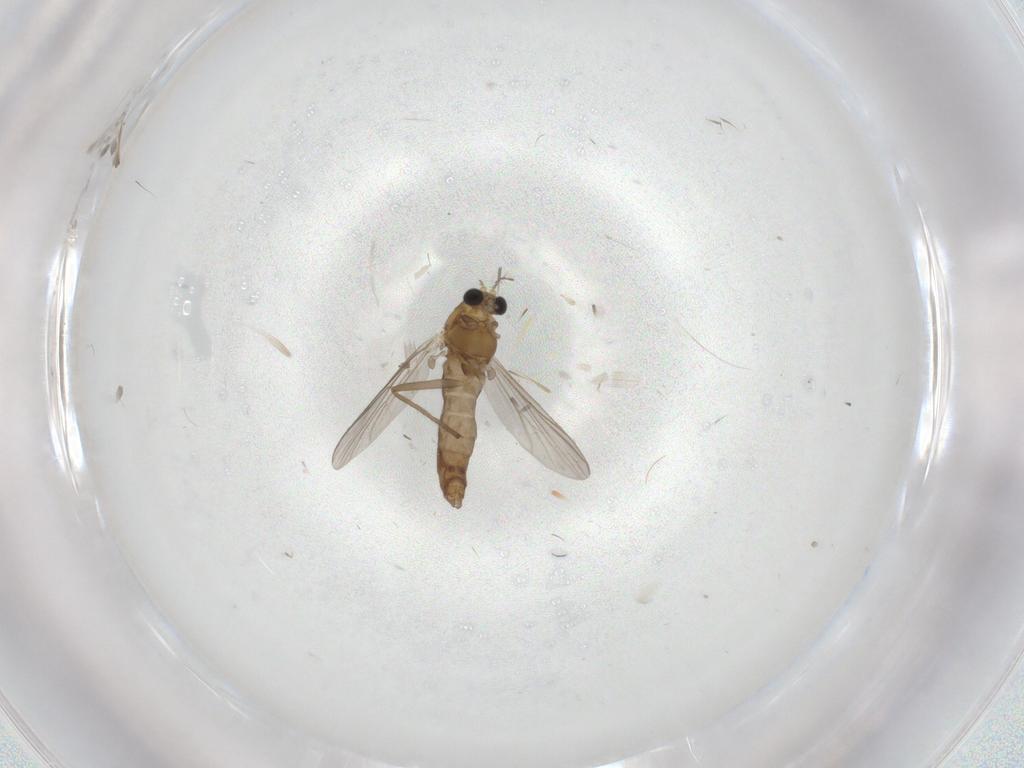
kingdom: Animalia
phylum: Arthropoda
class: Insecta
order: Diptera
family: Chironomidae
